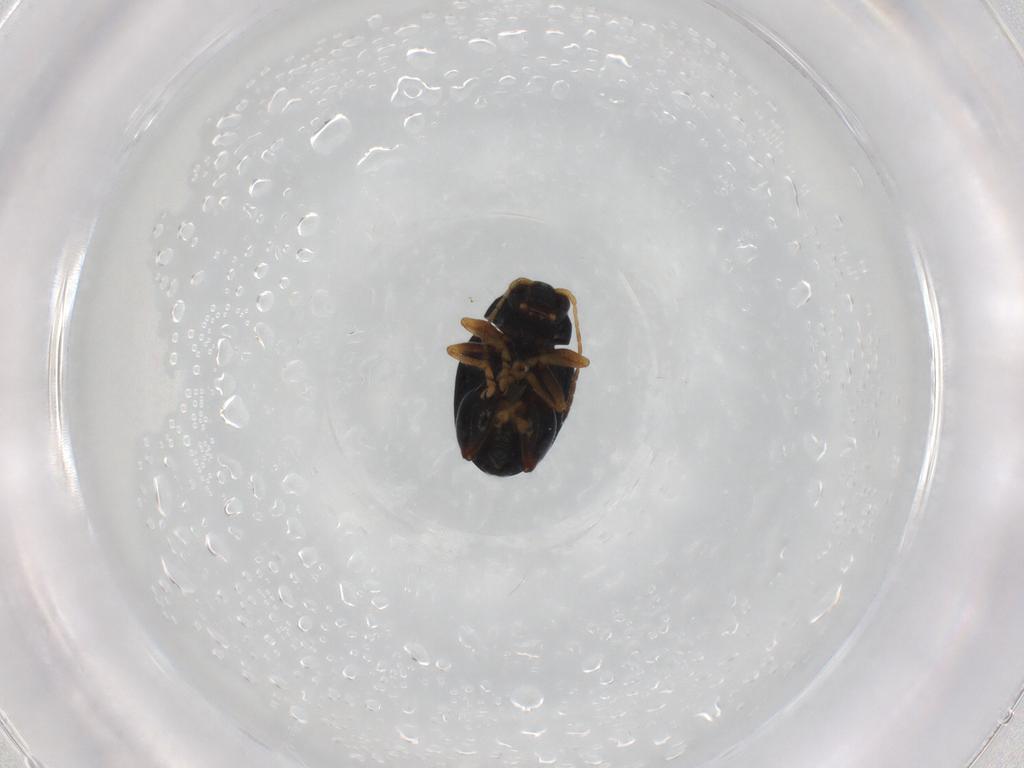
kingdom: Animalia
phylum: Arthropoda
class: Insecta
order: Coleoptera
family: Chrysomelidae
